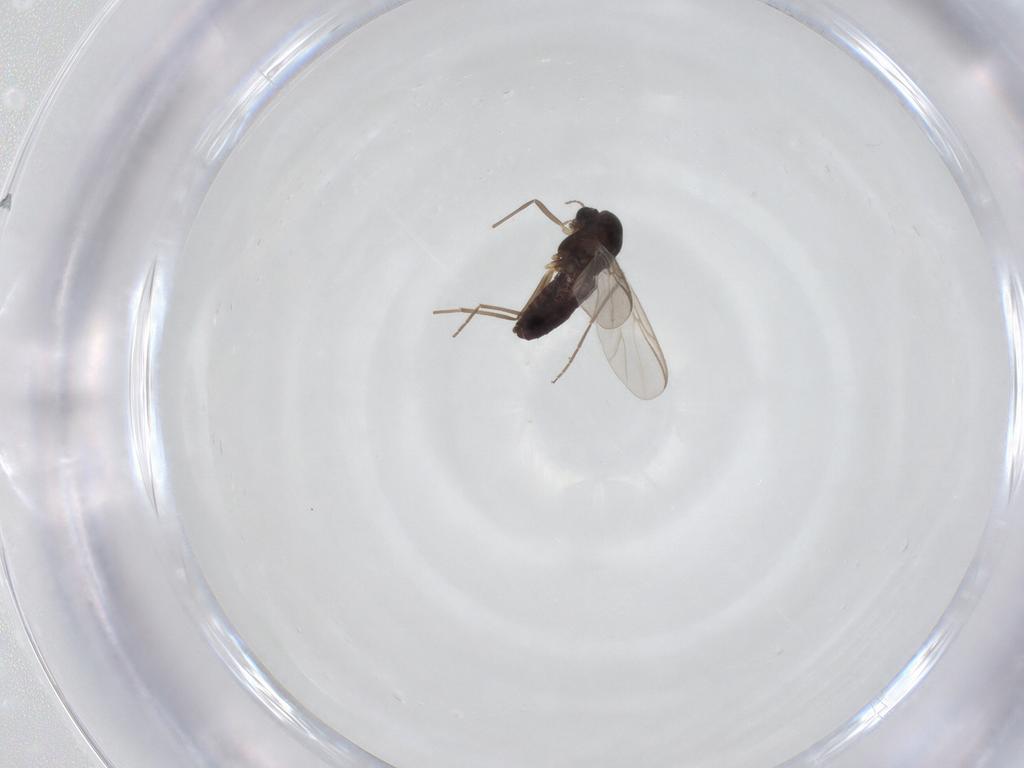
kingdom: Animalia
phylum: Arthropoda
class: Insecta
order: Diptera
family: Chironomidae
